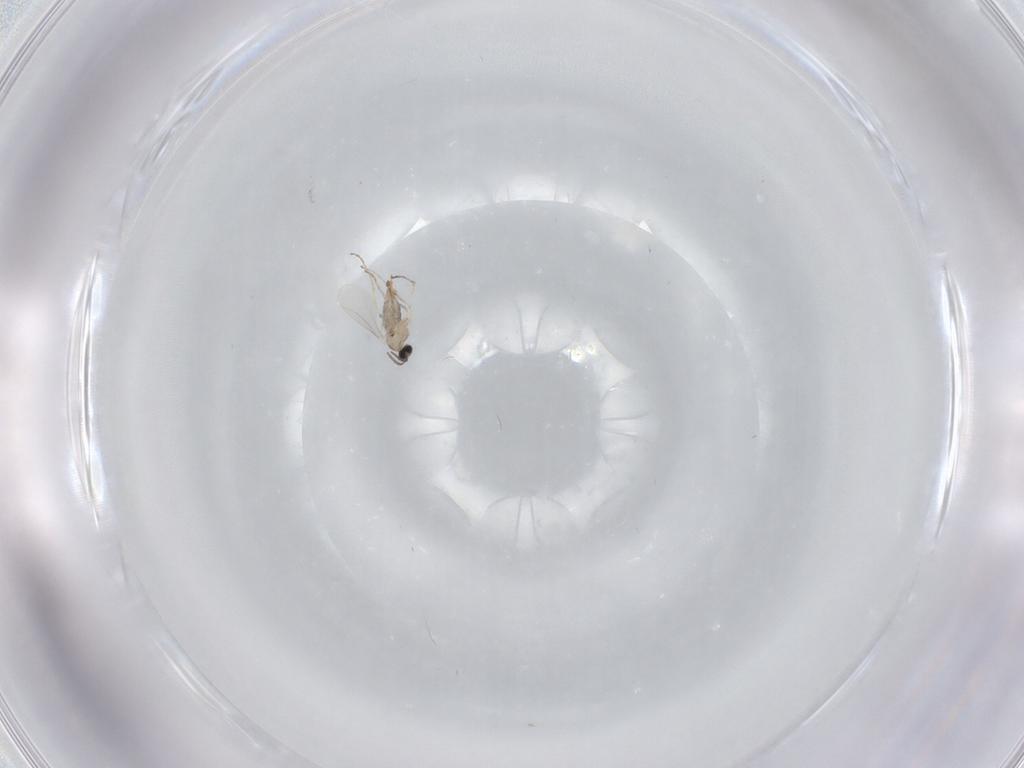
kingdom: Animalia
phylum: Arthropoda
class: Insecta
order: Diptera
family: Cecidomyiidae
